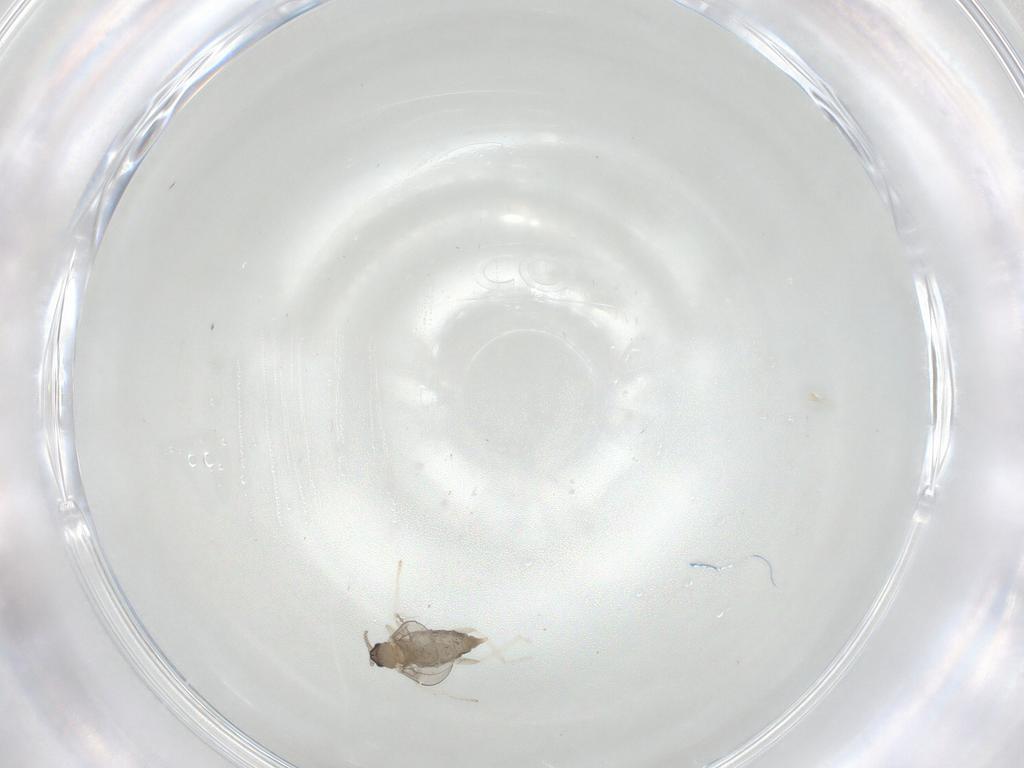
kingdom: Animalia
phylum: Arthropoda
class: Insecta
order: Diptera
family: Cecidomyiidae
